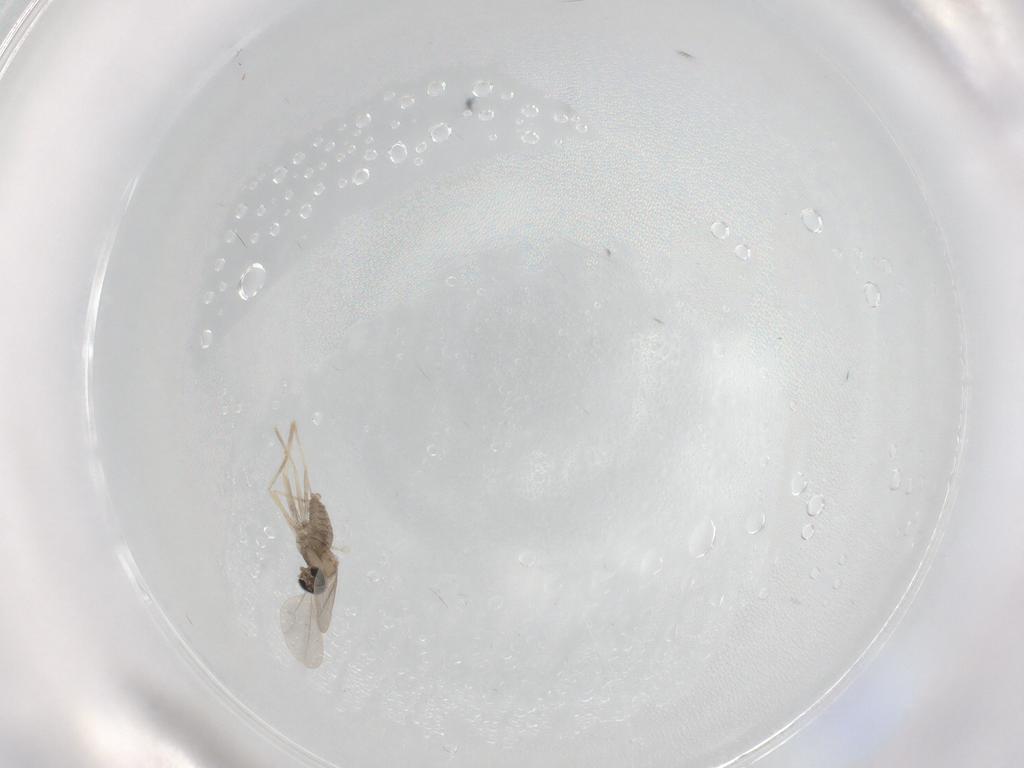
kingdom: Animalia
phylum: Arthropoda
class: Insecta
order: Diptera
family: Cecidomyiidae
